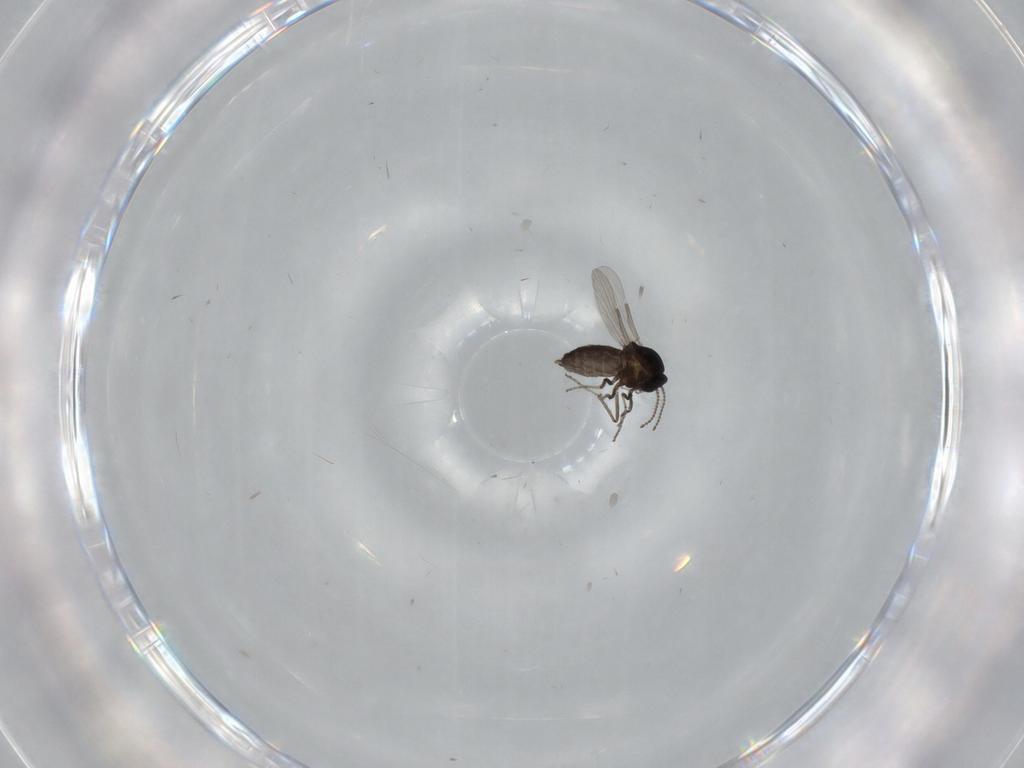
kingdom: Animalia
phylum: Arthropoda
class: Insecta
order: Diptera
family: Ceratopogonidae
